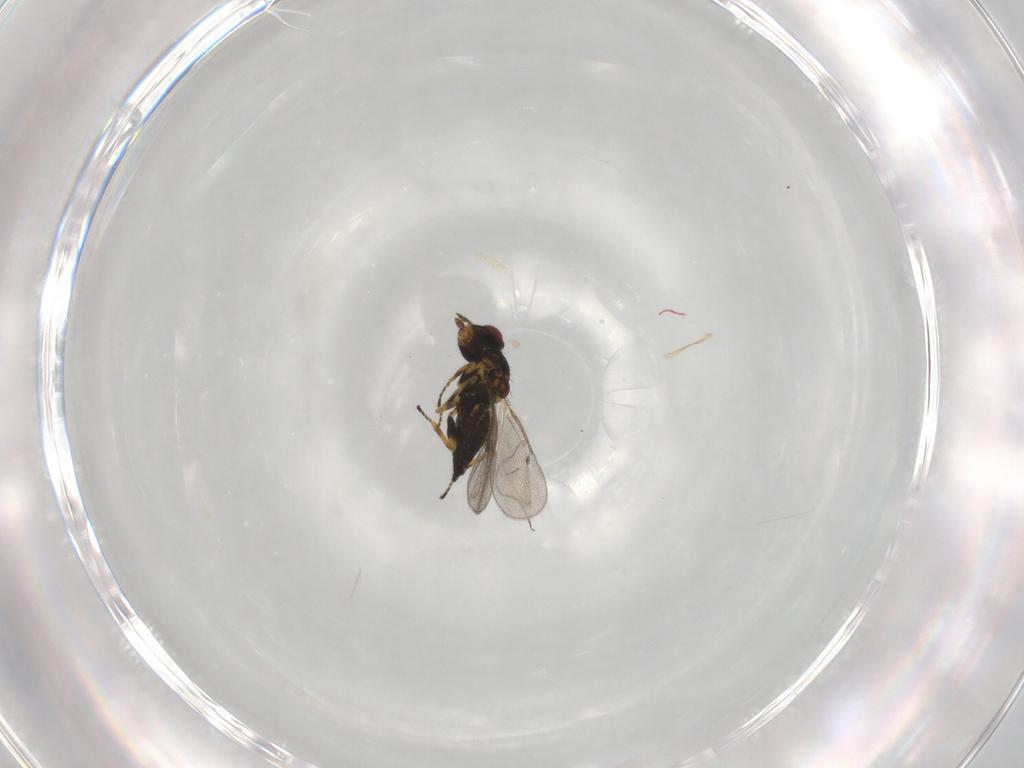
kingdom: Animalia
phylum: Arthropoda
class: Insecta
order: Hymenoptera
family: Eulophidae
